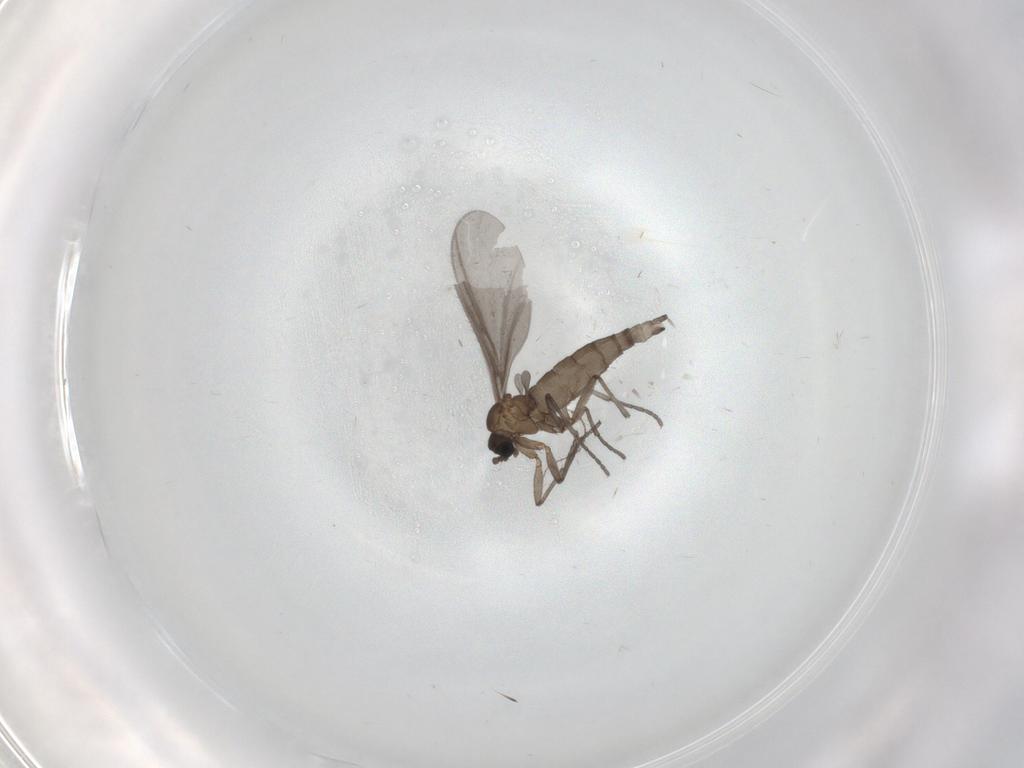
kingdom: Animalia
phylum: Arthropoda
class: Insecta
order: Diptera
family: Sciaridae
